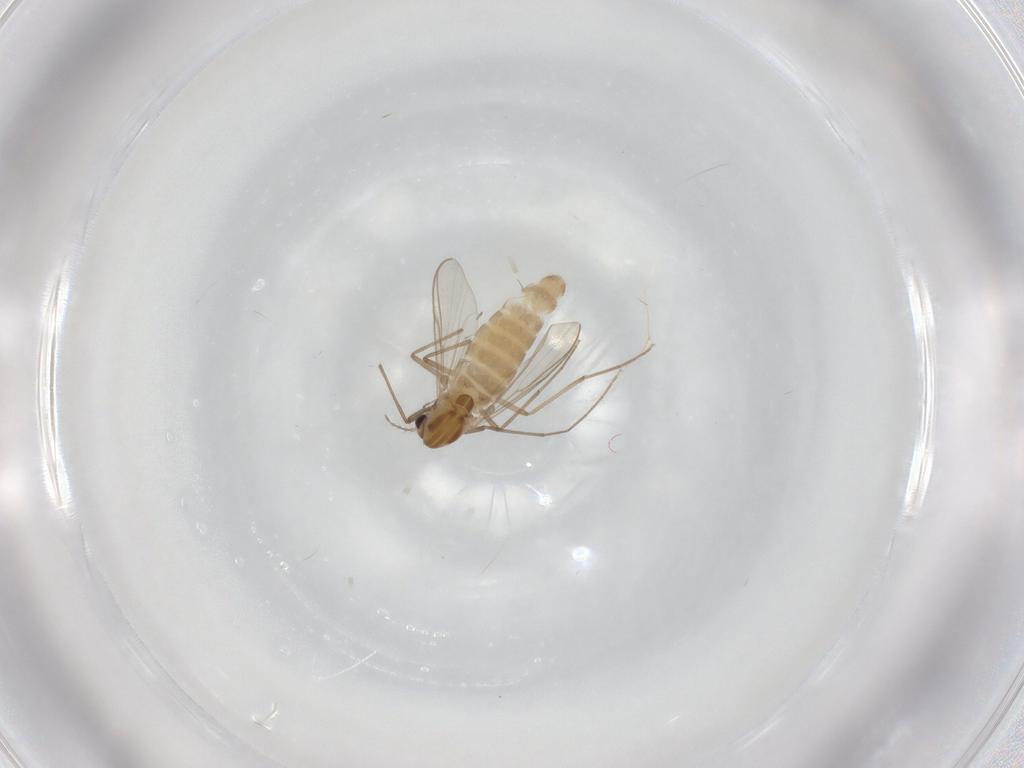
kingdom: Animalia
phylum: Arthropoda
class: Insecta
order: Diptera
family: Chironomidae
